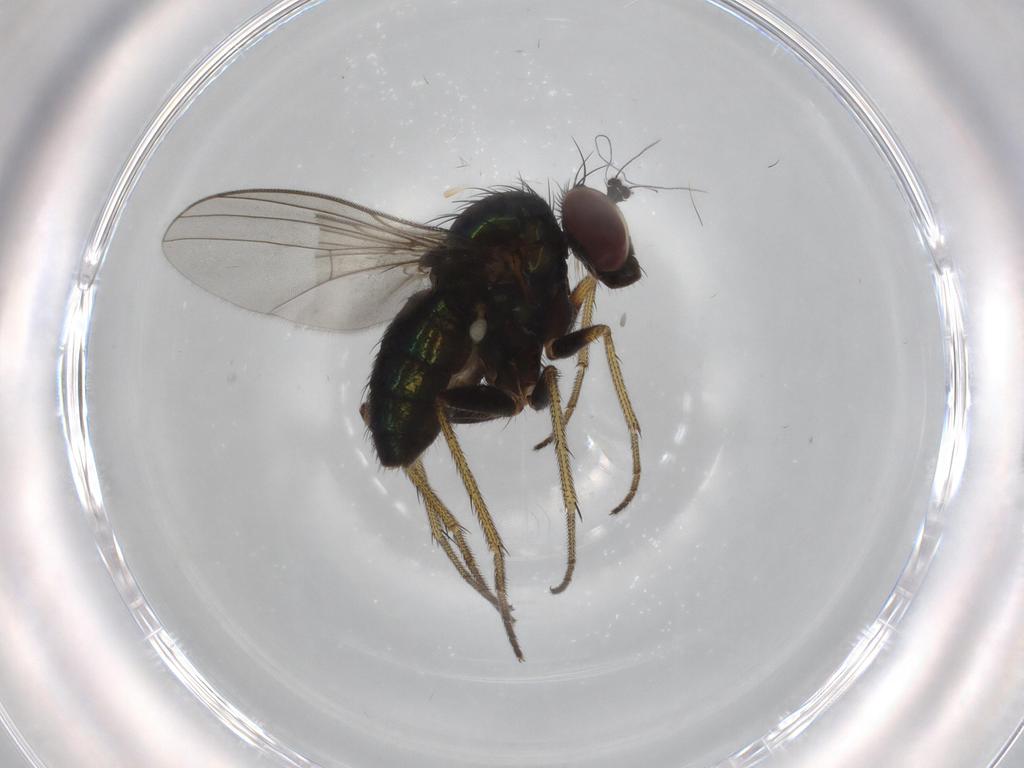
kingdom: Animalia
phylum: Arthropoda
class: Insecta
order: Diptera
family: Dolichopodidae
